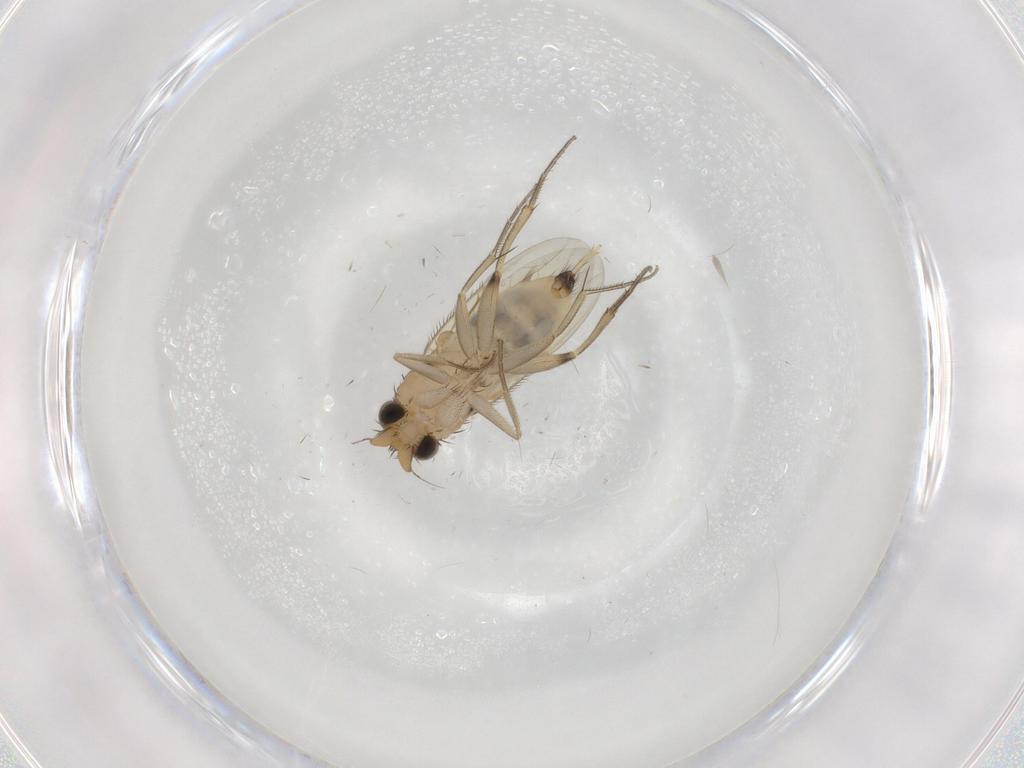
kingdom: Animalia
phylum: Arthropoda
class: Insecta
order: Diptera
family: Phoridae
